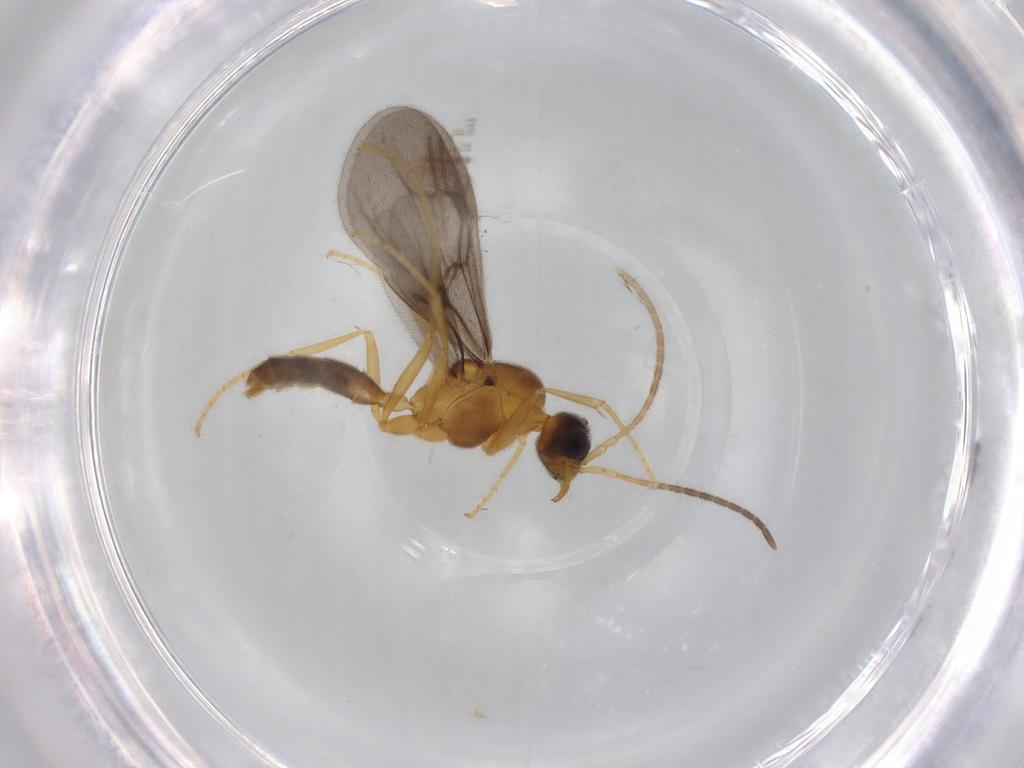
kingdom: Animalia
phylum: Arthropoda
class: Insecta
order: Hymenoptera
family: Formicidae
